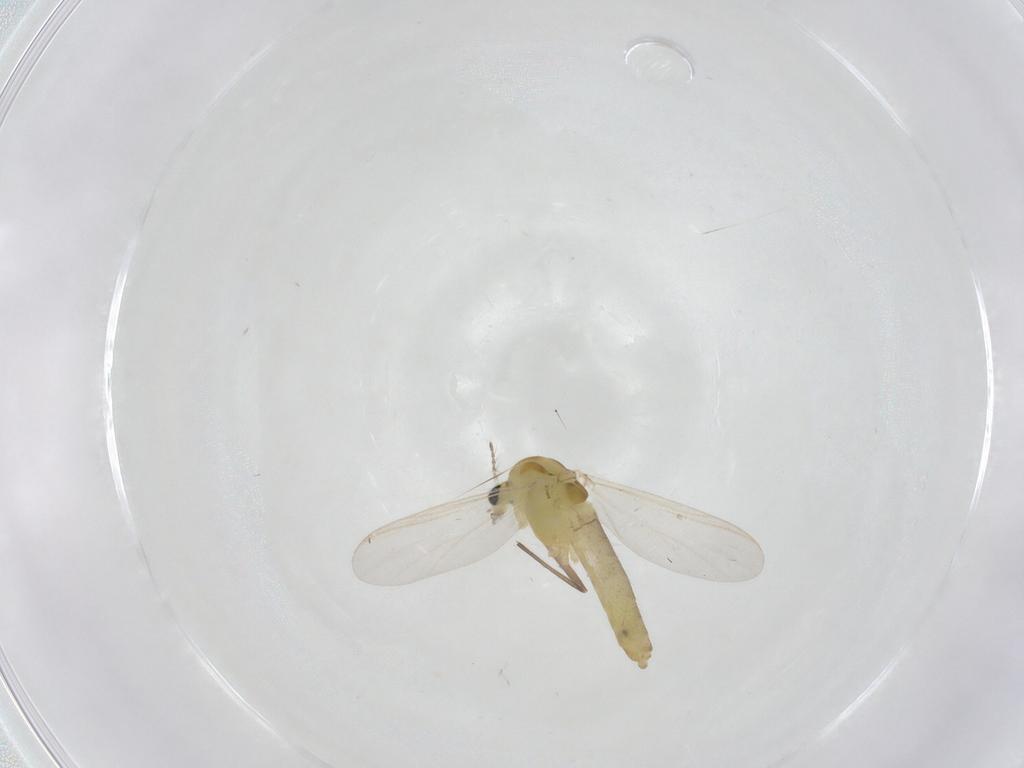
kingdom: Animalia
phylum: Arthropoda
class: Insecta
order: Diptera
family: Chironomidae
